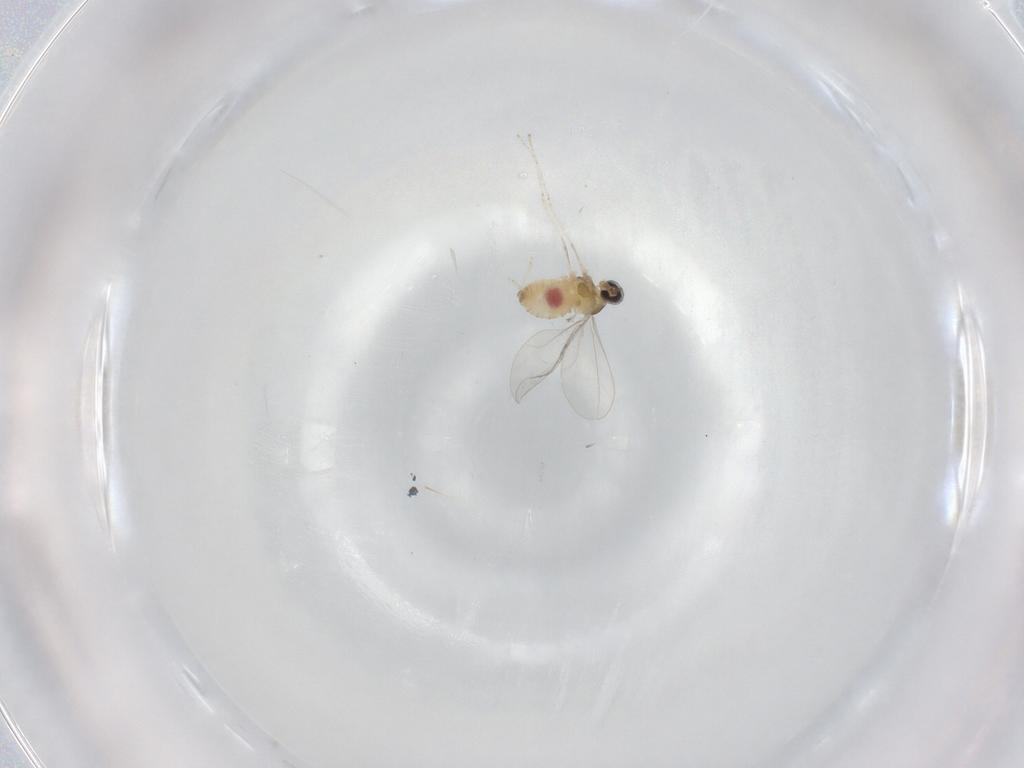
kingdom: Animalia
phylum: Arthropoda
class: Insecta
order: Diptera
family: Cecidomyiidae
